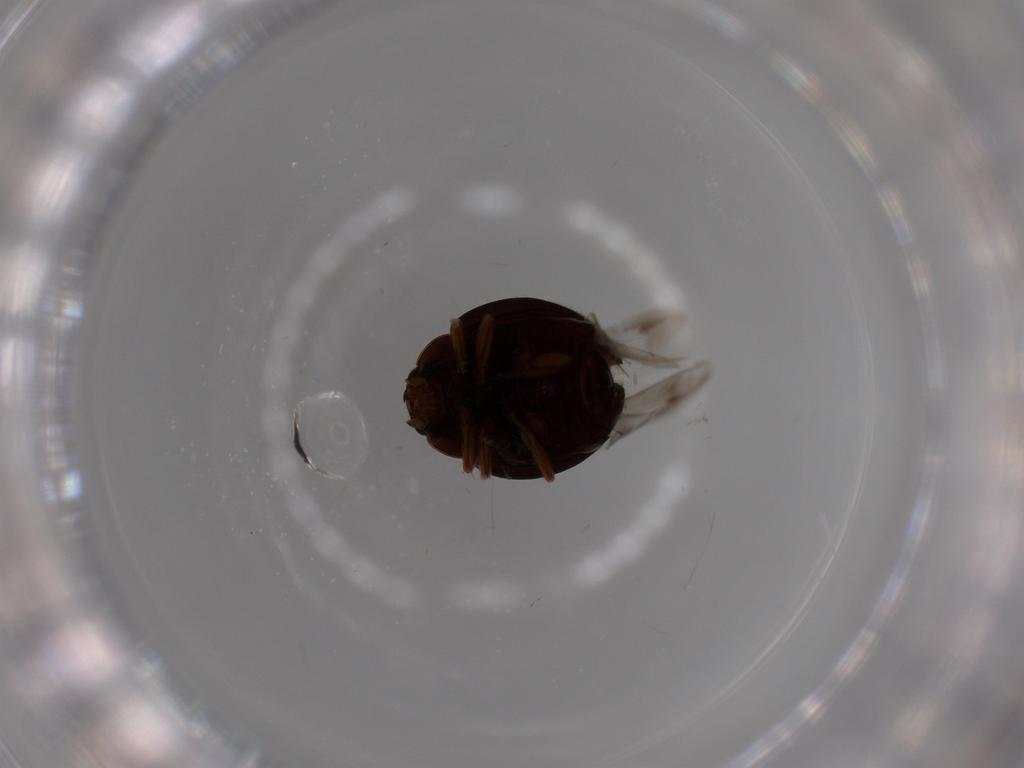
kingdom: Animalia
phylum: Arthropoda
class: Insecta
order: Coleoptera
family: Coccinellidae
